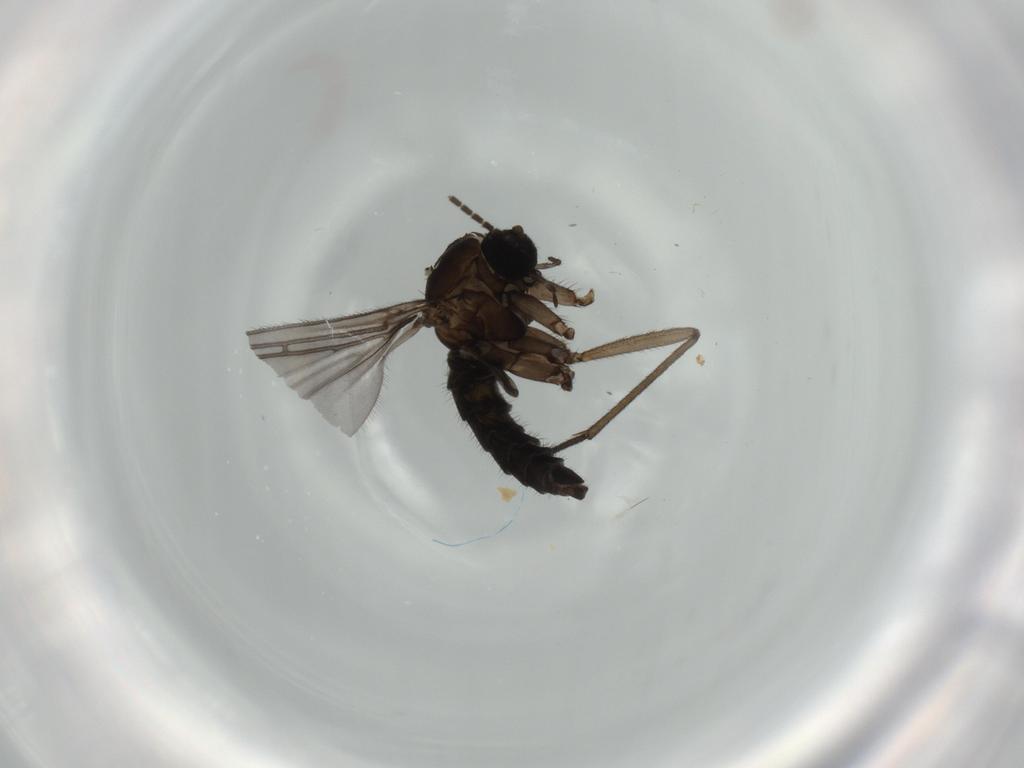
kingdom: Animalia
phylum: Arthropoda
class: Insecta
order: Diptera
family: Sciaridae
